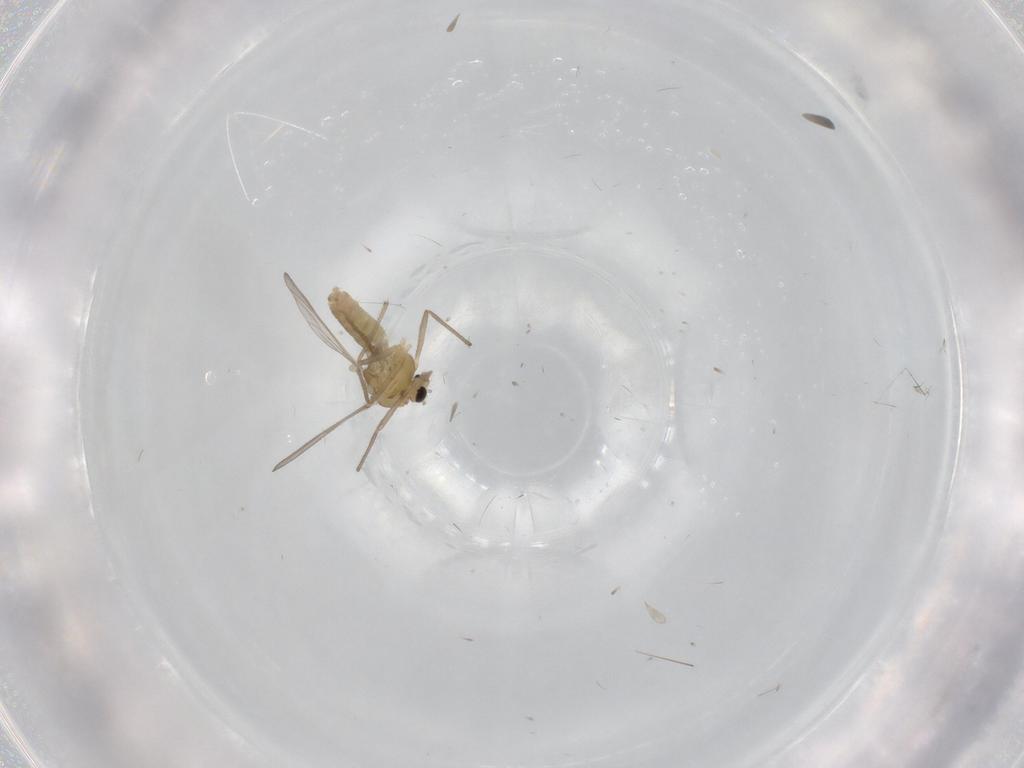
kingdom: Animalia
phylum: Arthropoda
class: Insecta
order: Diptera
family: Chironomidae
